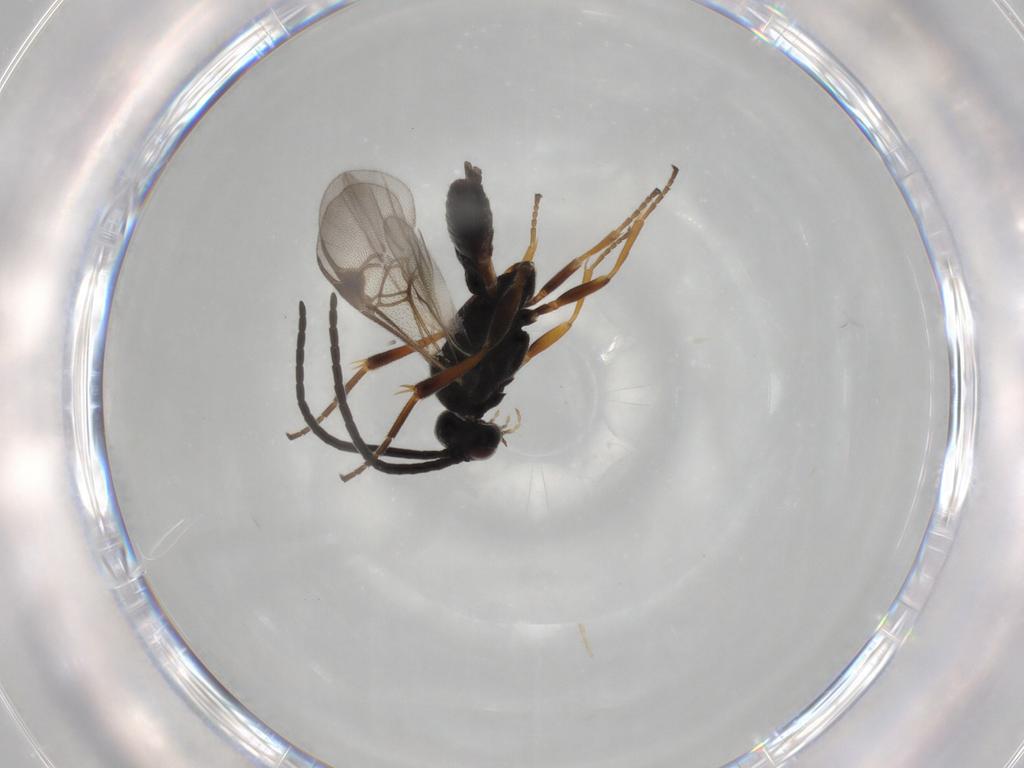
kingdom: Animalia
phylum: Arthropoda
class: Insecta
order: Hymenoptera
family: Braconidae
